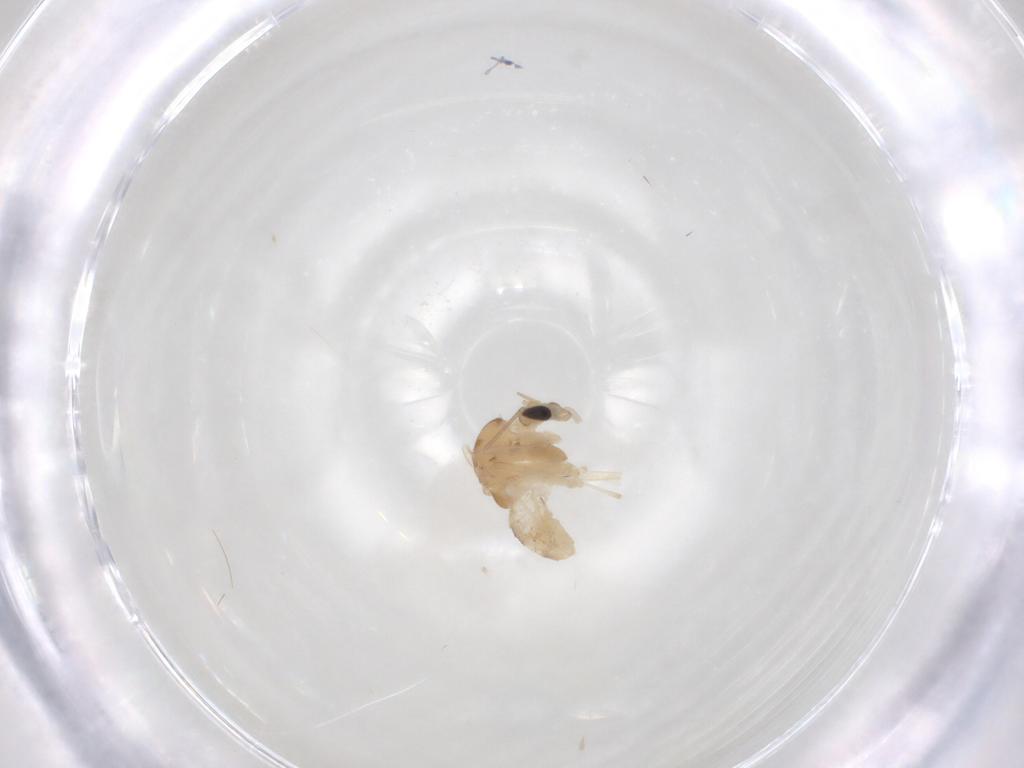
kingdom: Animalia
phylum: Arthropoda
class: Insecta
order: Diptera
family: Chironomidae
